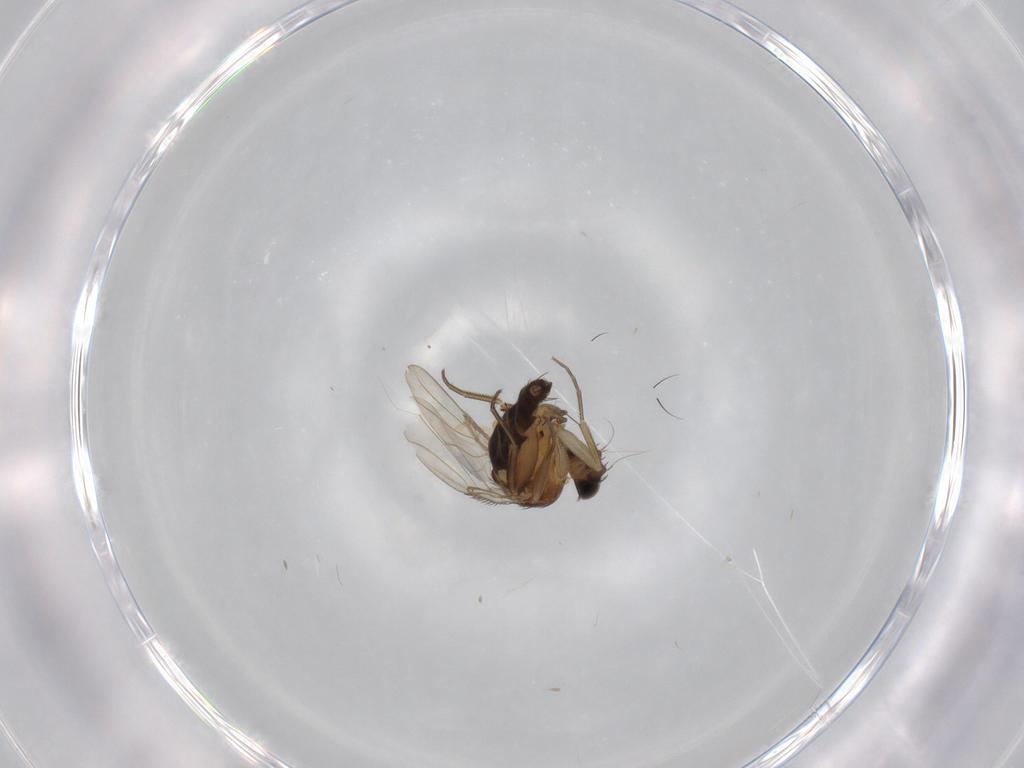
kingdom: Animalia
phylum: Arthropoda
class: Insecta
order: Diptera
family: Phoridae
